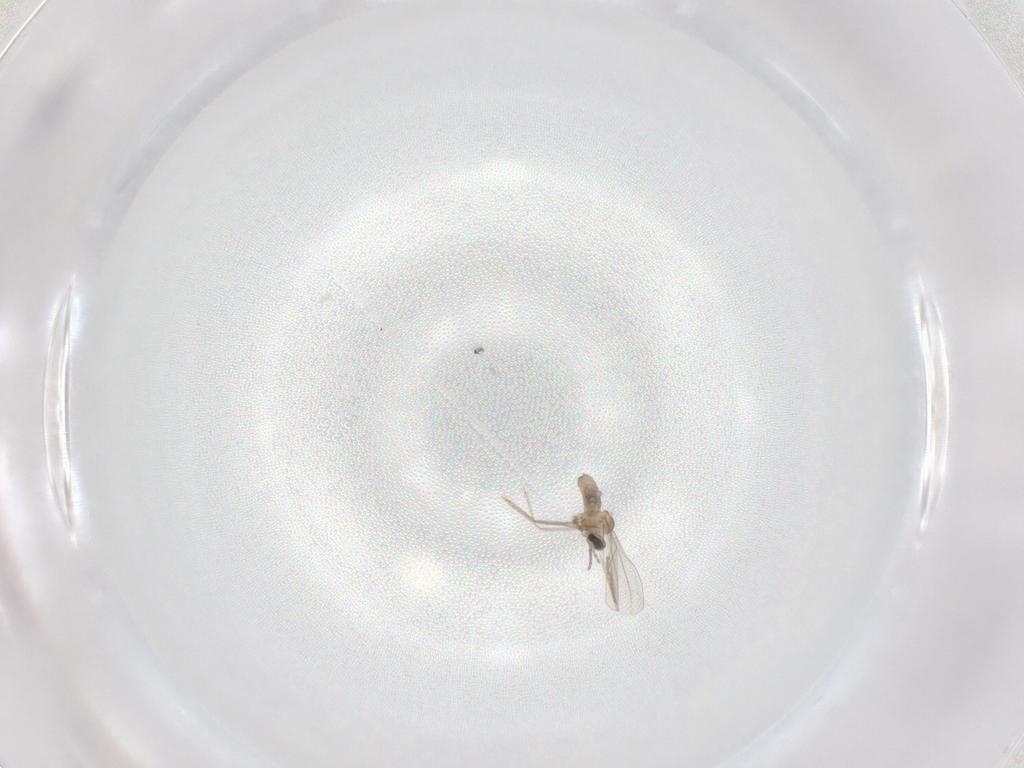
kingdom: Animalia
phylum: Arthropoda
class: Insecta
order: Diptera
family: Cecidomyiidae
